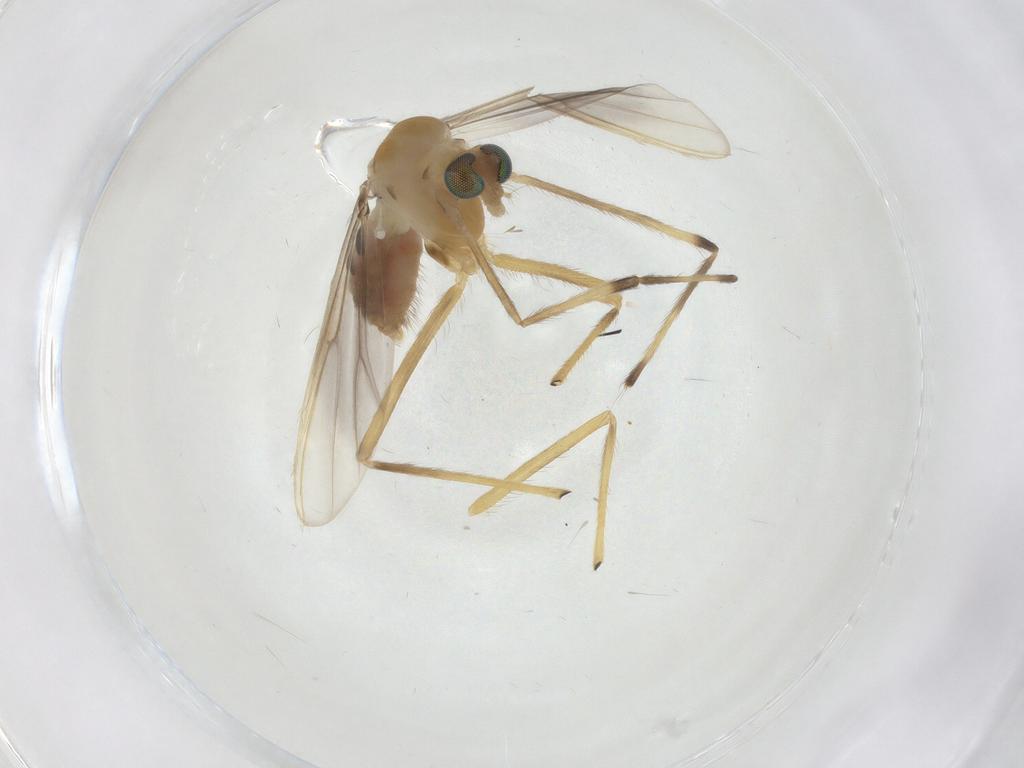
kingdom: Animalia
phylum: Arthropoda
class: Insecta
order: Diptera
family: Chironomidae
